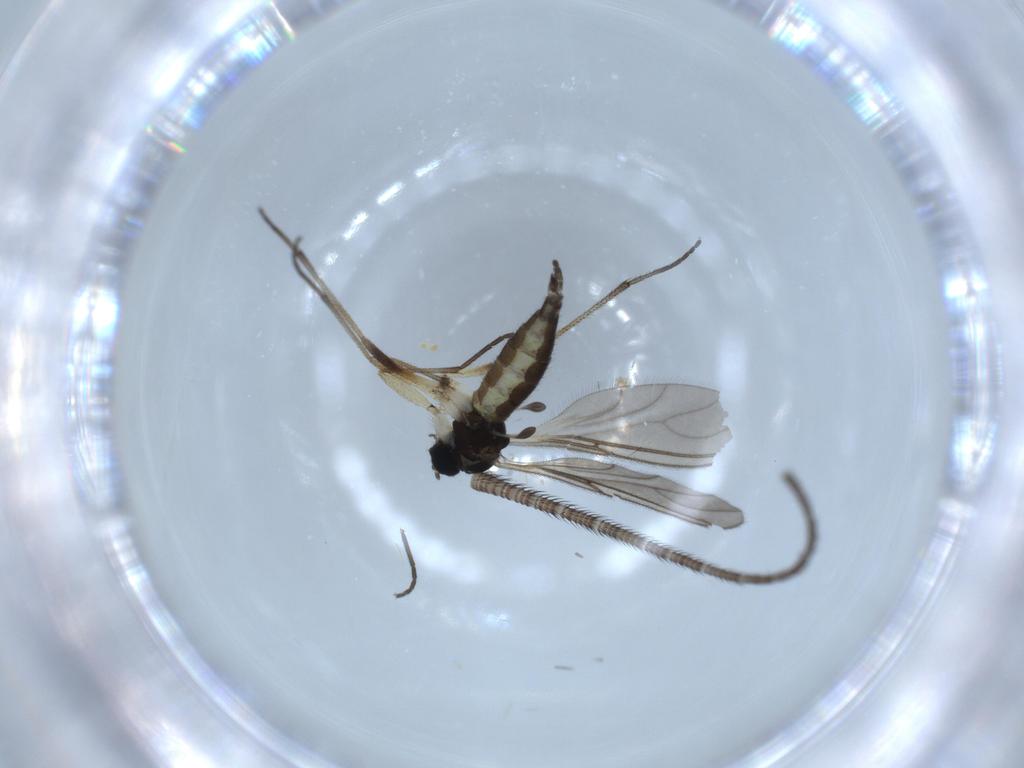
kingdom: Animalia
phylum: Arthropoda
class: Insecta
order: Diptera
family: Sciaridae
